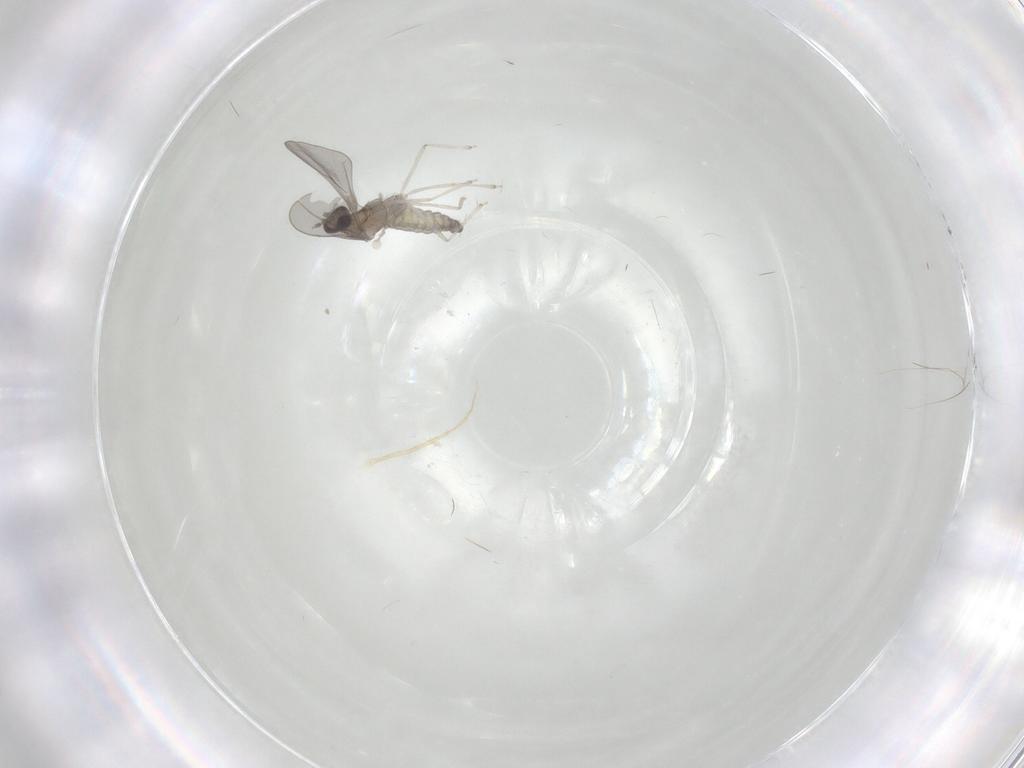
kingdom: Animalia
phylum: Arthropoda
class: Insecta
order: Diptera
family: Cecidomyiidae
